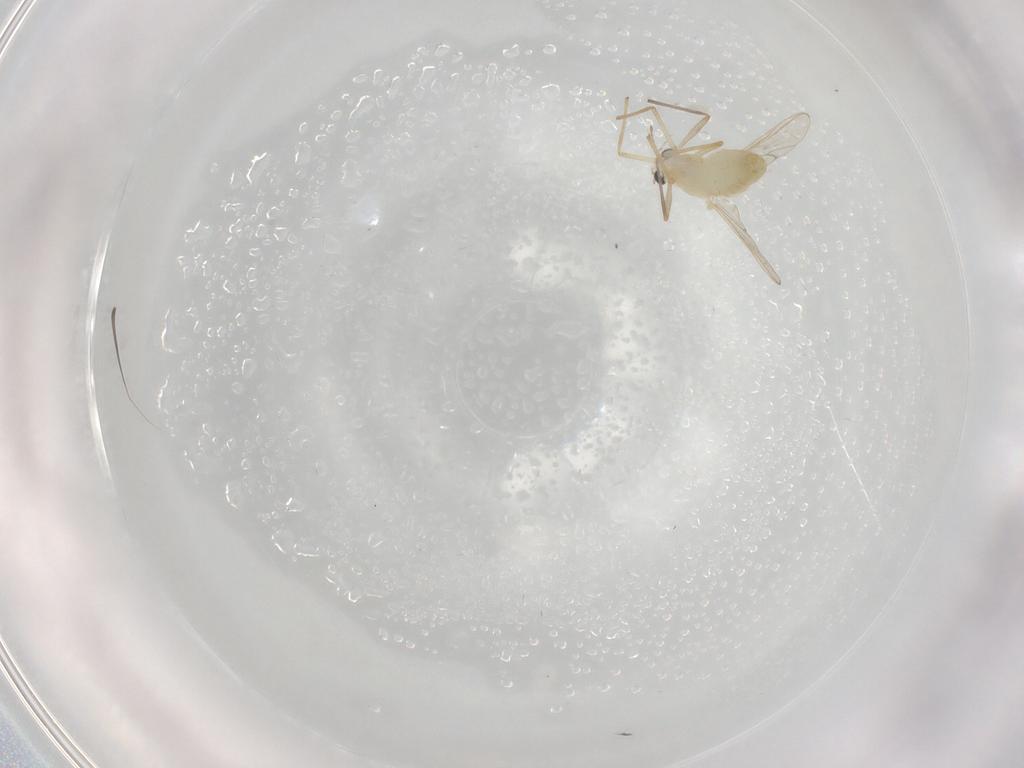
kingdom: Animalia
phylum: Arthropoda
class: Insecta
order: Diptera
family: Chironomidae
